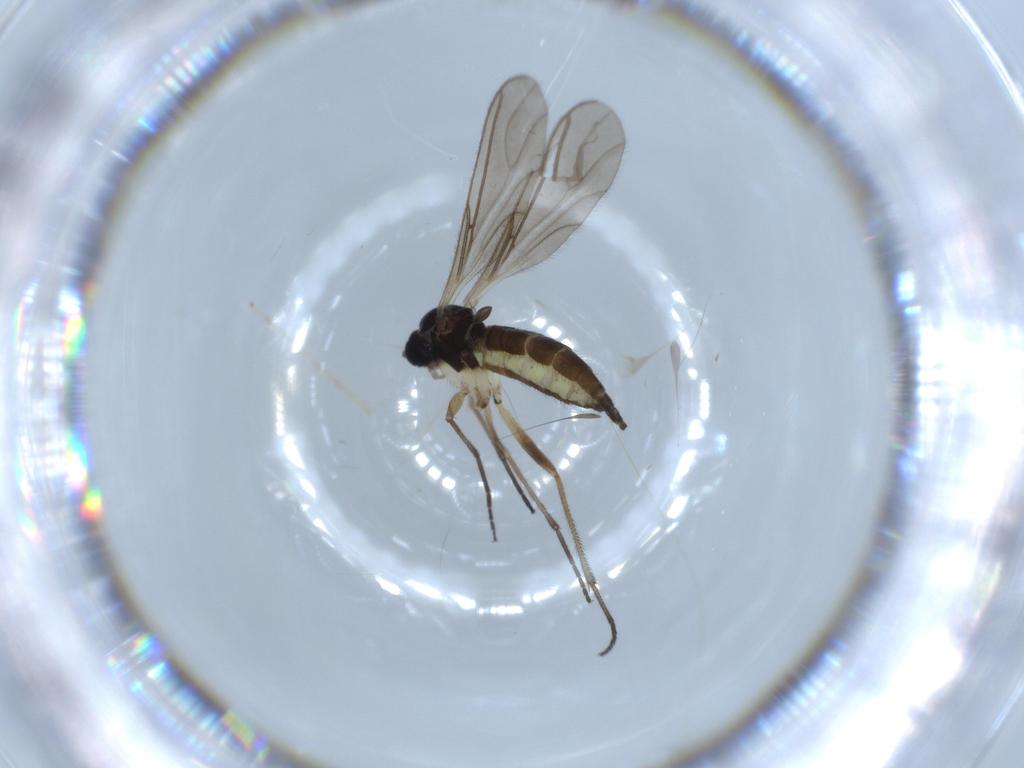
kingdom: Animalia
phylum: Arthropoda
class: Insecta
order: Diptera
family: Sciaridae
